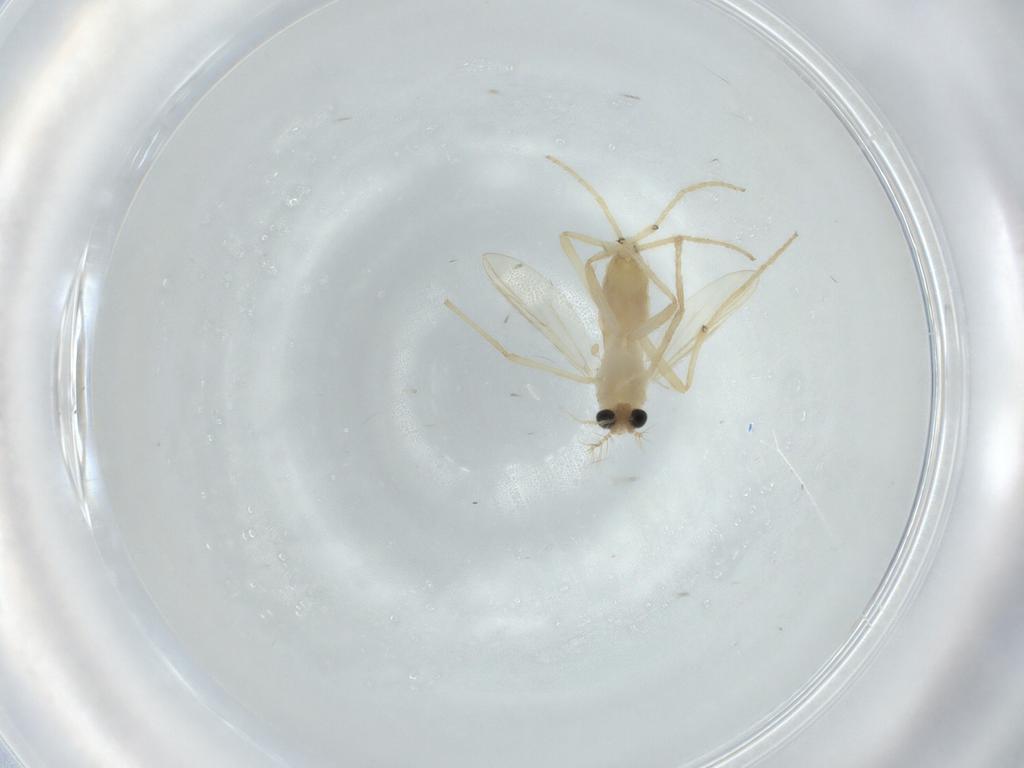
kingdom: Animalia
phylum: Arthropoda
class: Insecta
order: Diptera
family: Chironomidae
